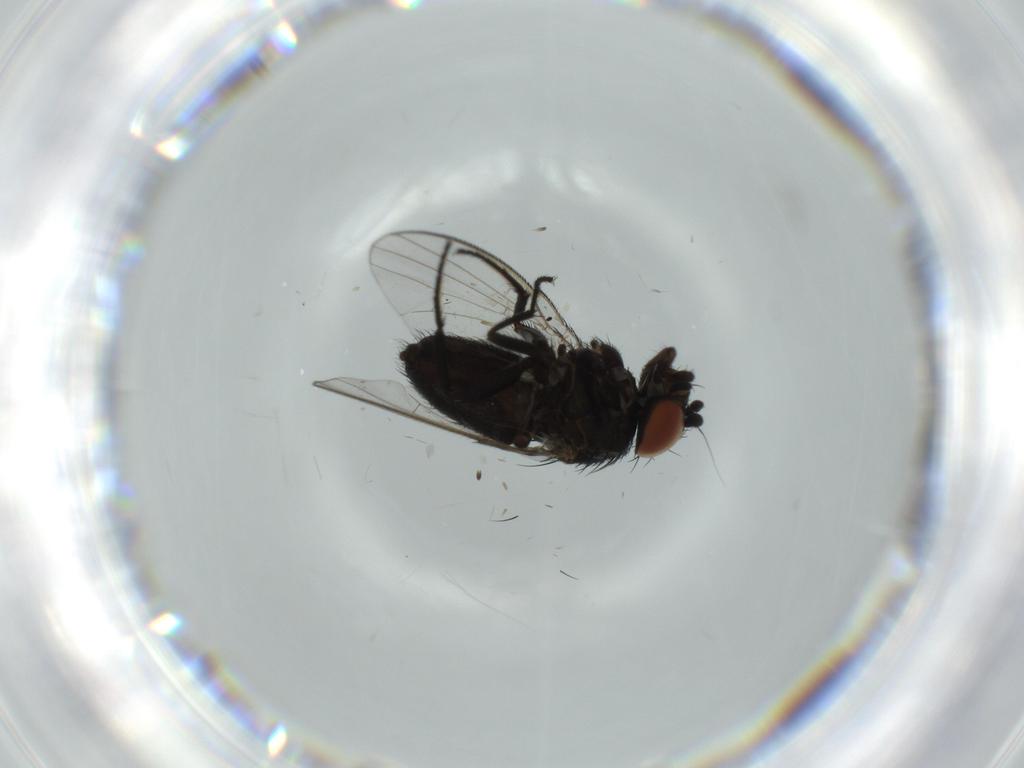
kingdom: Animalia
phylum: Arthropoda
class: Insecta
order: Diptera
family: Milichiidae
